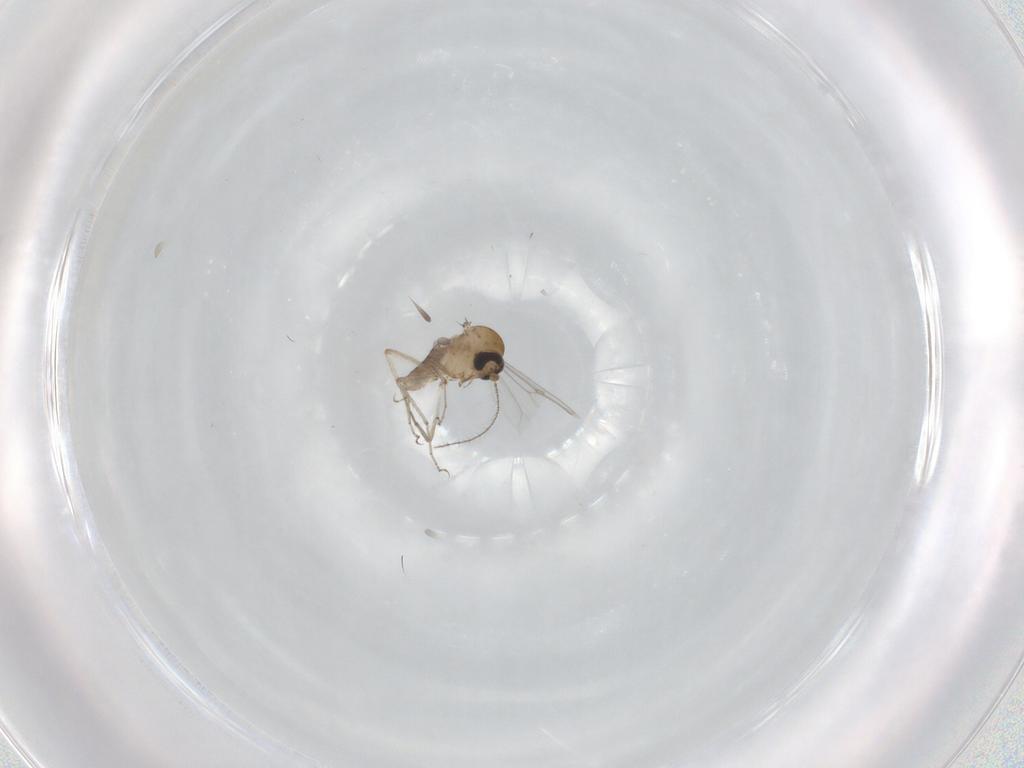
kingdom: Animalia
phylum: Arthropoda
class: Insecta
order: Diptera
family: Ceratopogonidae
